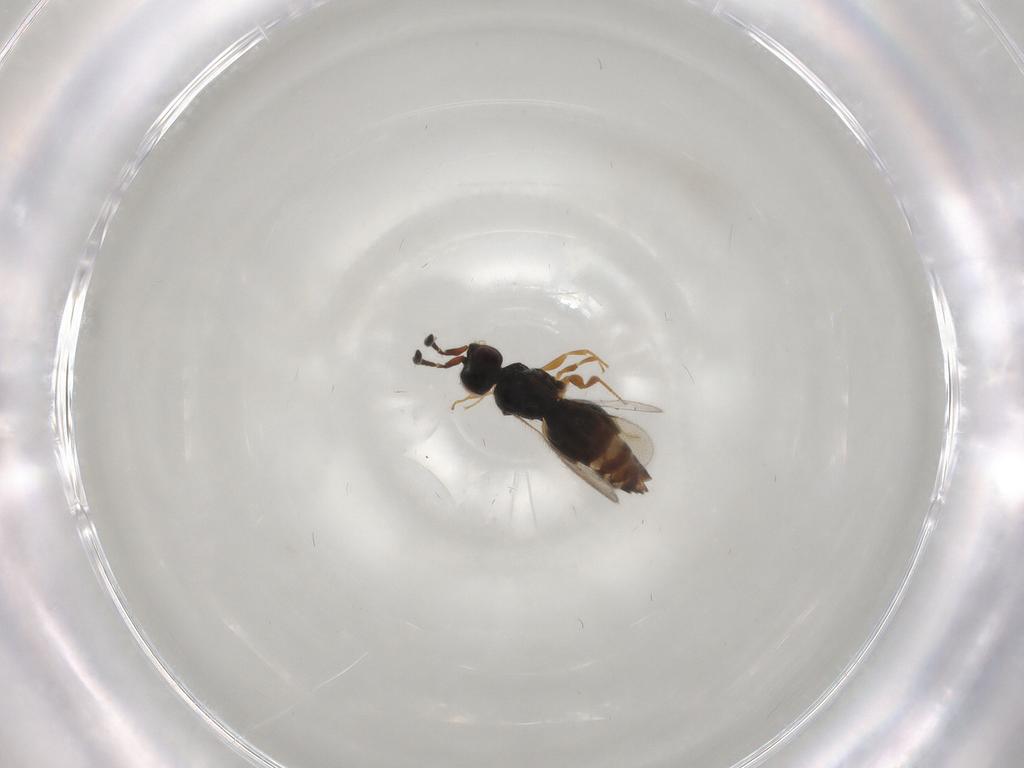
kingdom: Animalia
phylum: Arthropoda
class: Insecta
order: Hymenoptera
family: Ceraphronidae
